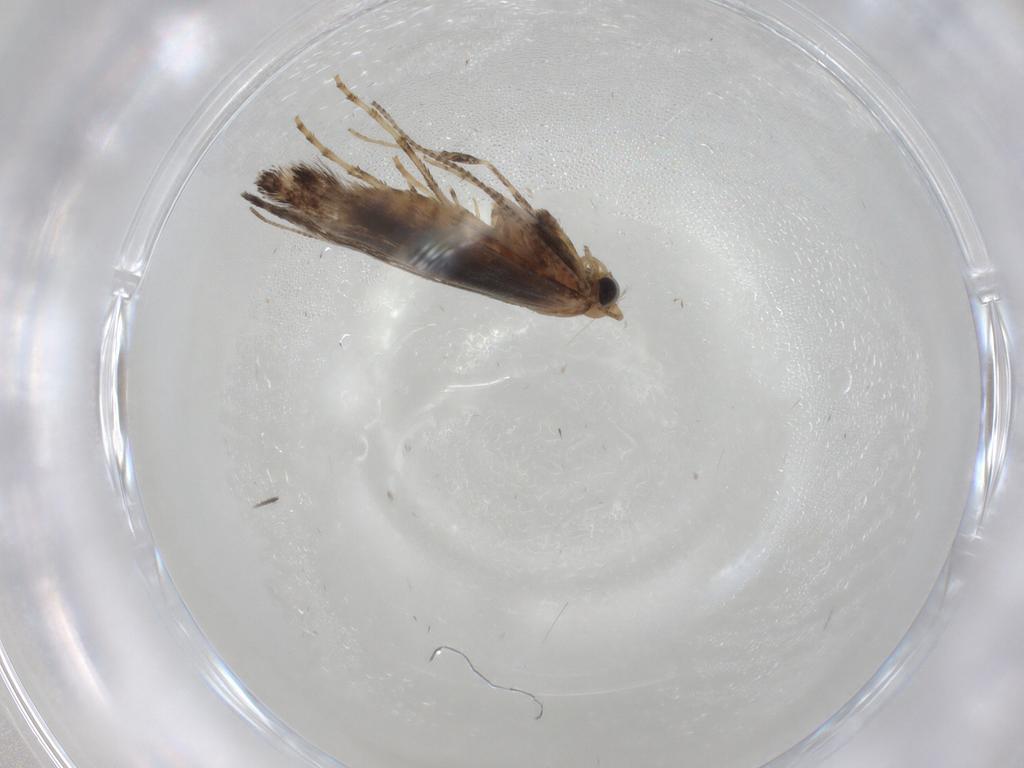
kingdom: Animalia
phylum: Arthropoda
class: Insecta
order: Lepidoptera
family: Gracillariidae
